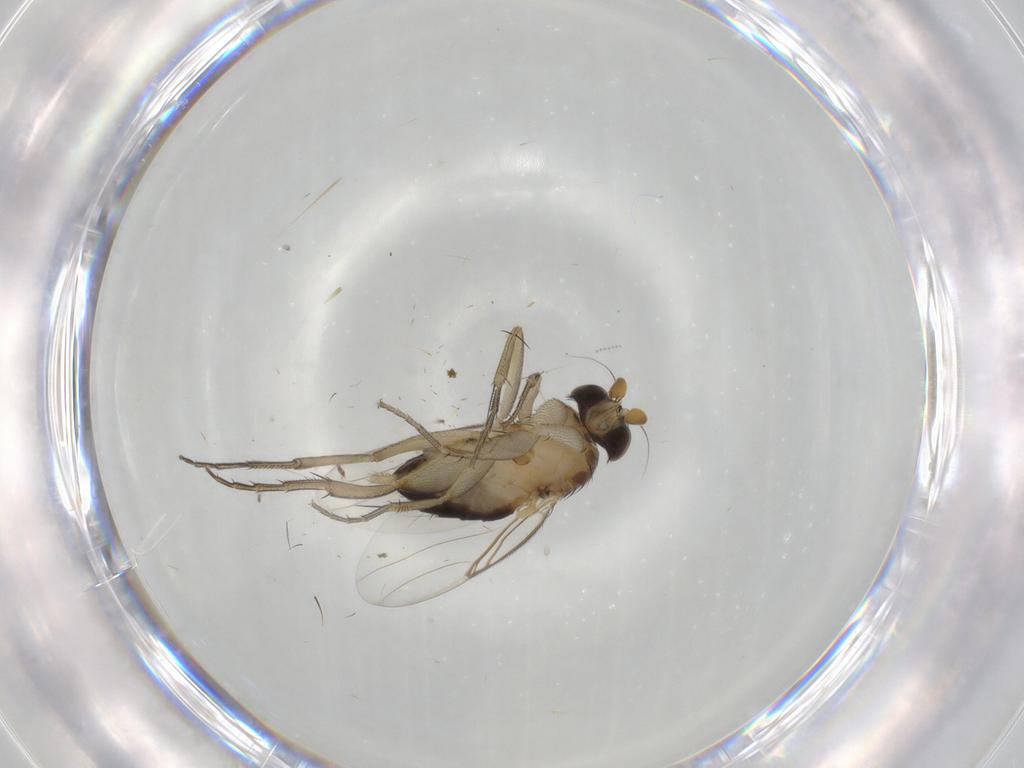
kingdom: Animalia
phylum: Arthropoda
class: Insecta
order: Diptera
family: Phoridae
